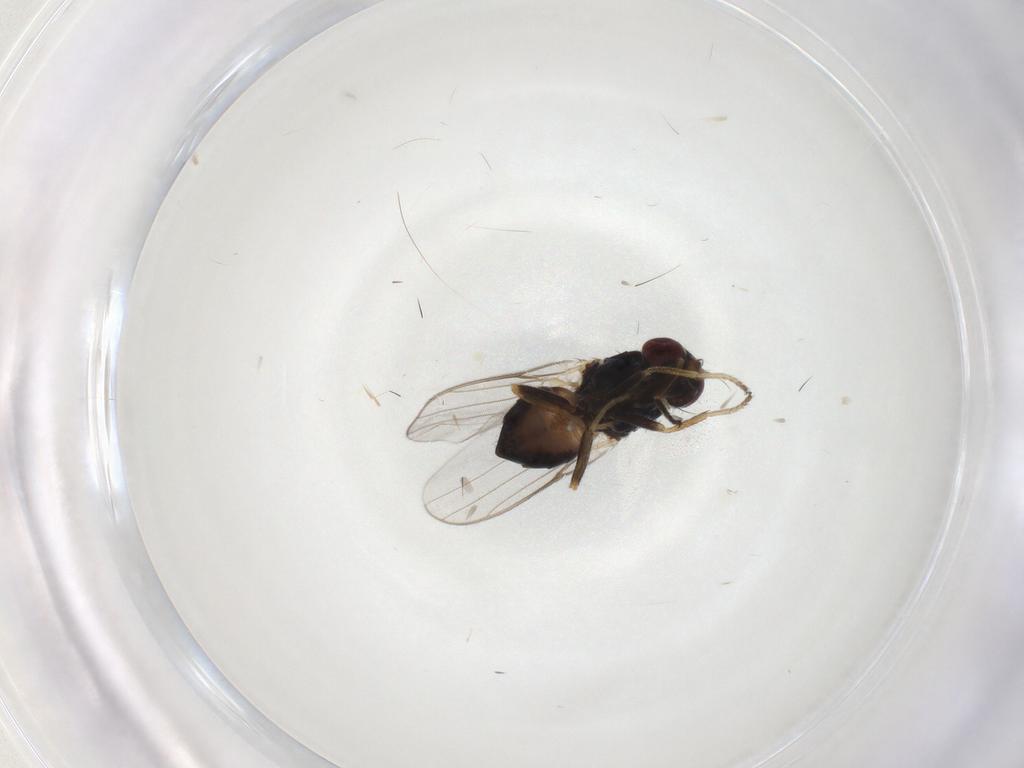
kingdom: Animalia
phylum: Arthropoda
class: Insecta
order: Diptera
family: Chloropidae
